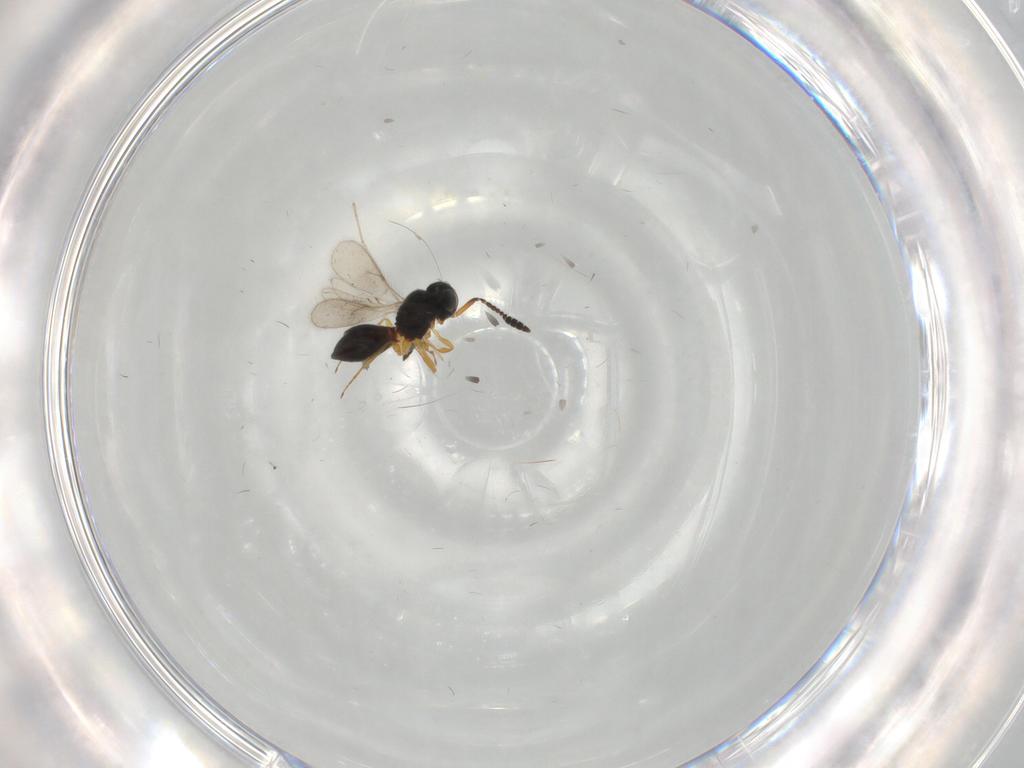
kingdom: Animalia
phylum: Arthropoda
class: Insecta
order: Hymenoptera
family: Scelionidae
